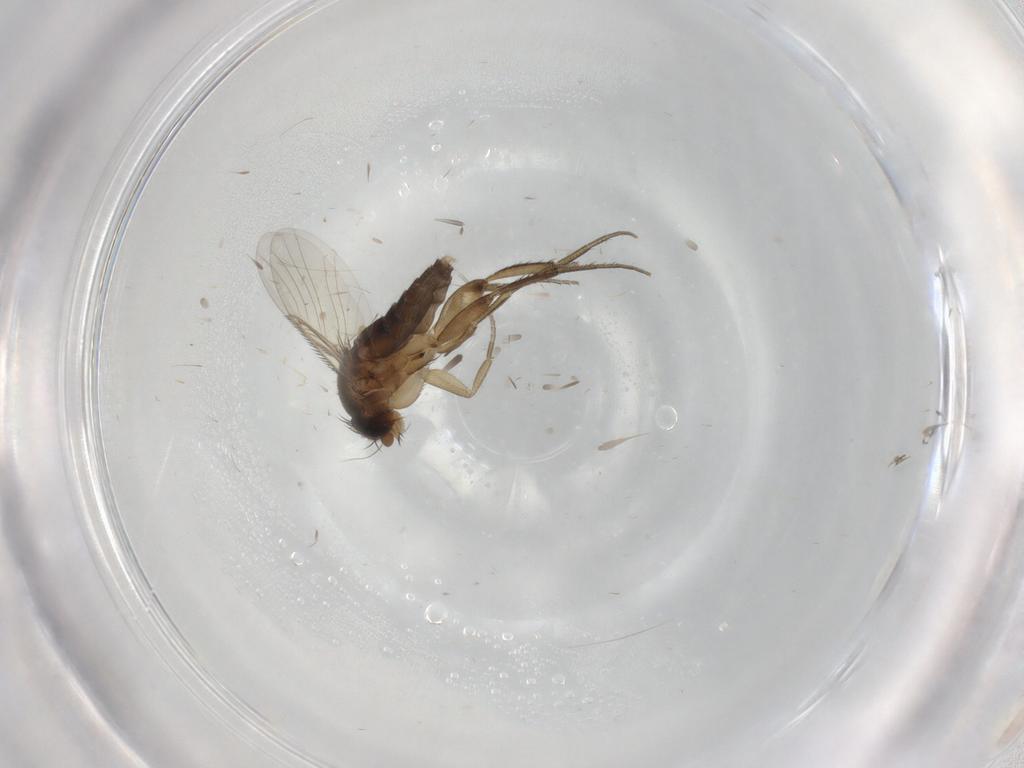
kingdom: Animalia
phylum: Arthropoda
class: Insecta
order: Diptera
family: Phoridae
